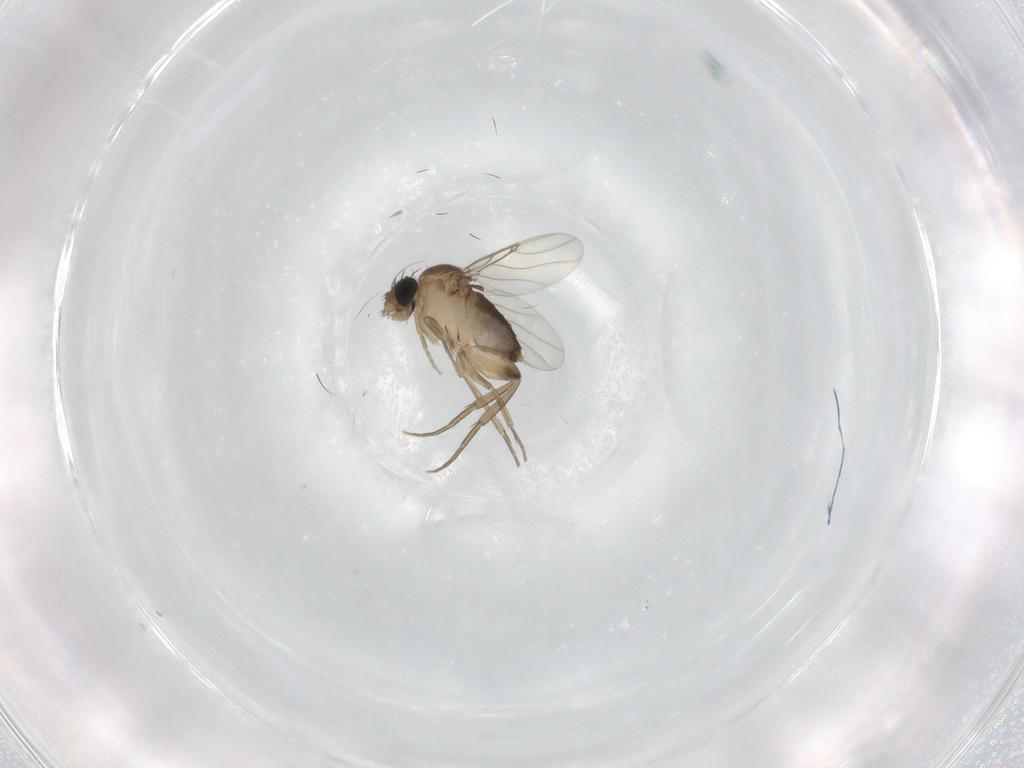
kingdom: Animalia
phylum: Arthropoda
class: Insecta
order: Diptera
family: Phoridae
